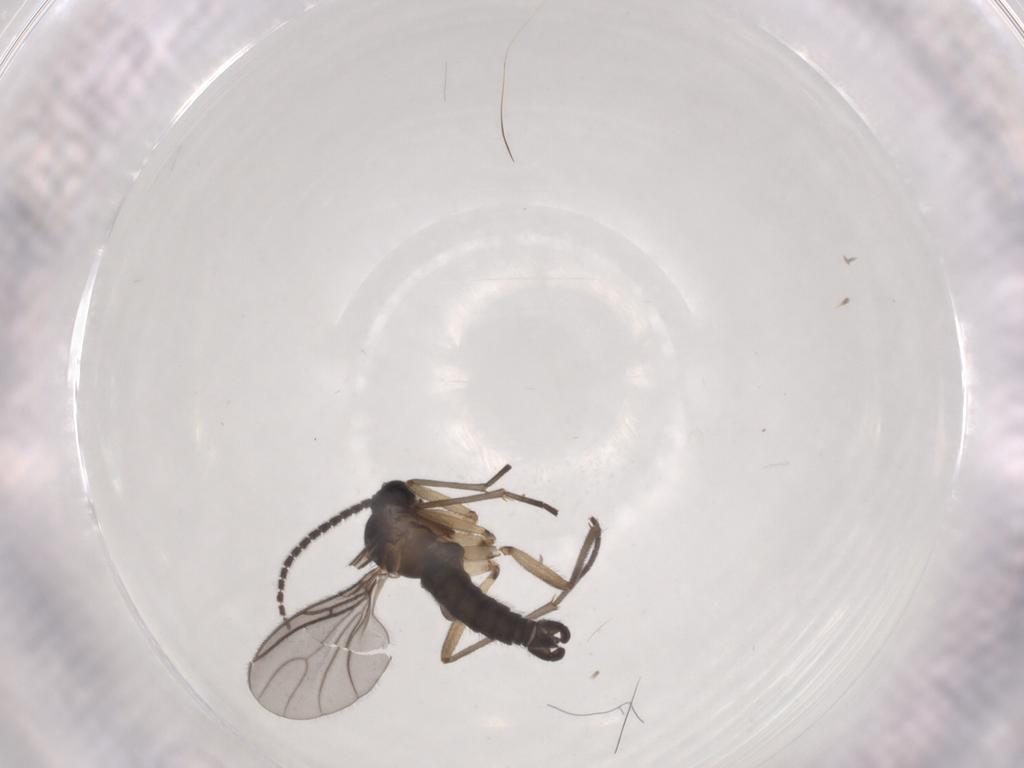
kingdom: Animalia
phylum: Arthropoda
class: Insecta
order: Diptera
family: Sciaridae
